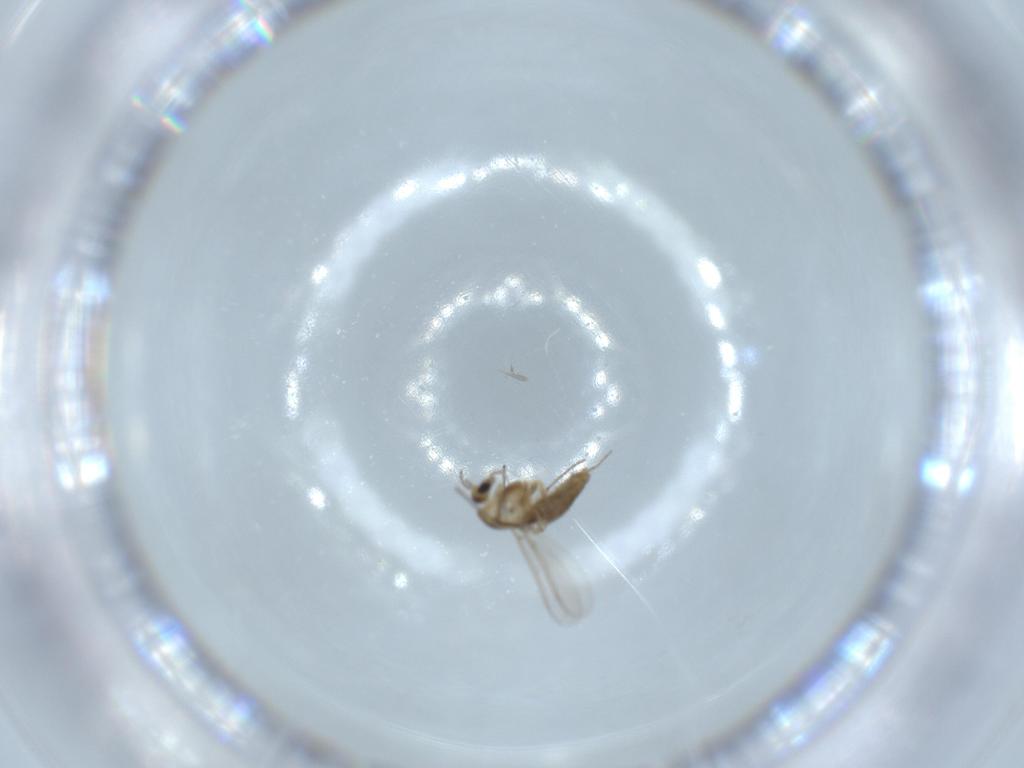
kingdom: Animalia
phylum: Arthropoda
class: Insecta
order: Diptera
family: Chironomidae
